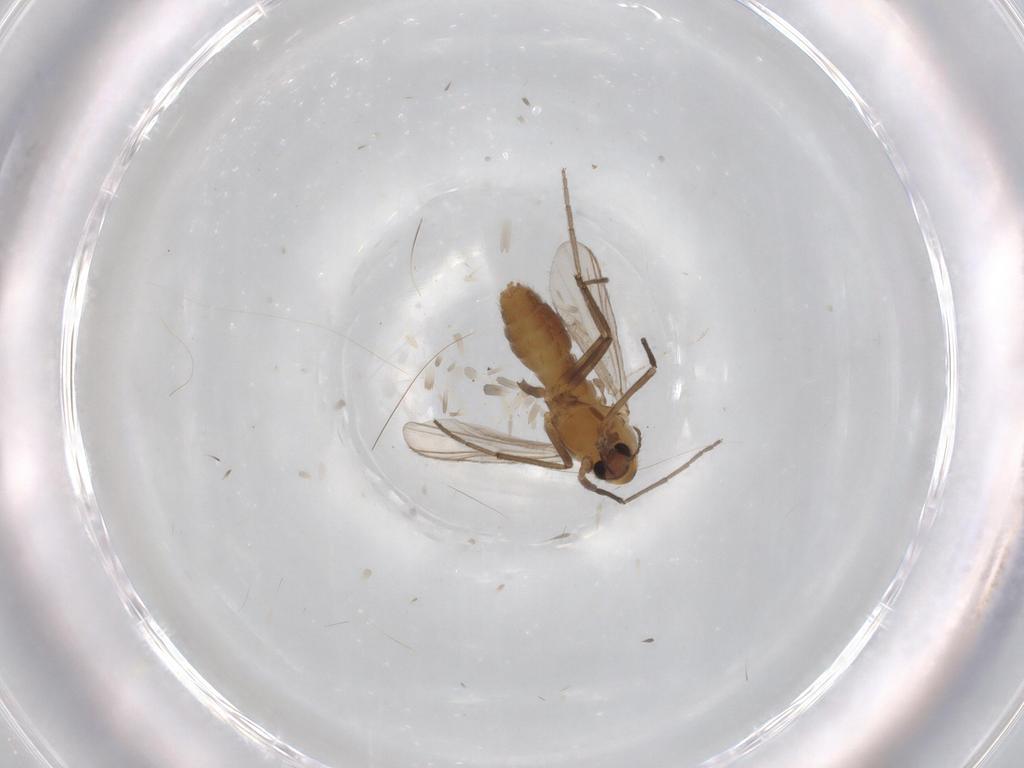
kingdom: Animalia
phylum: Arthropoda
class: Insecta
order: Diptera
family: Chironomidae
